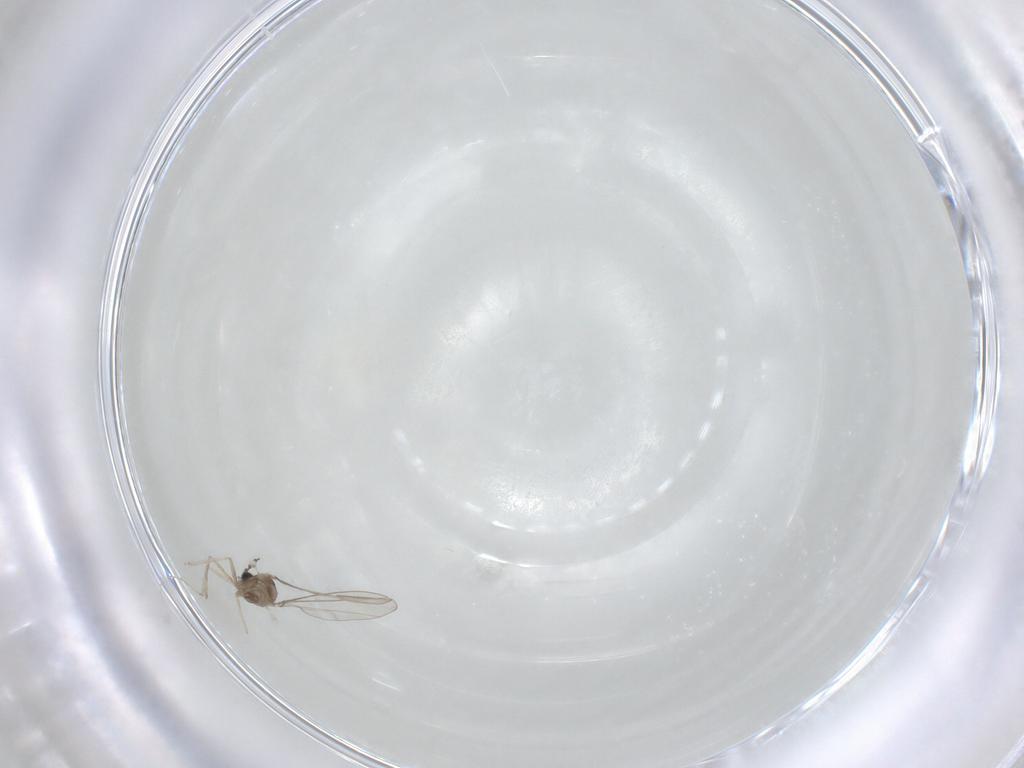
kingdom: Animalia
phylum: Arthropoda
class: Insecta
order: Diptera
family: Cecidomyiidae
